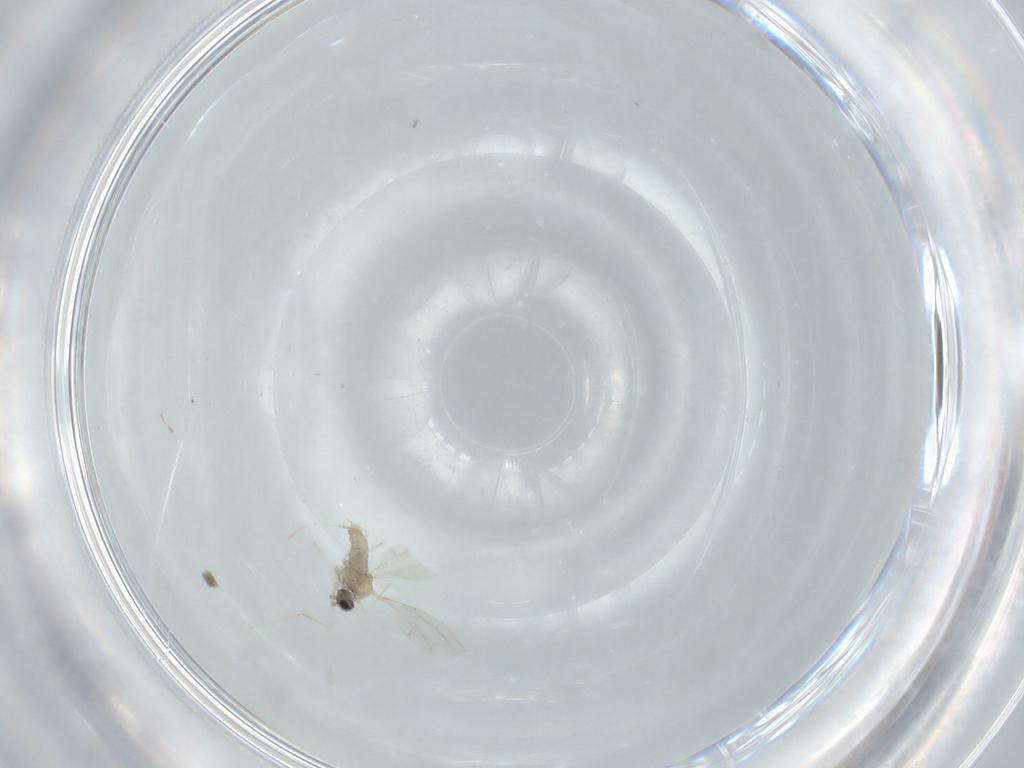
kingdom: Animalia
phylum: Arthropoda
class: Insecta
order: Diptera
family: Cecidomyiidae
